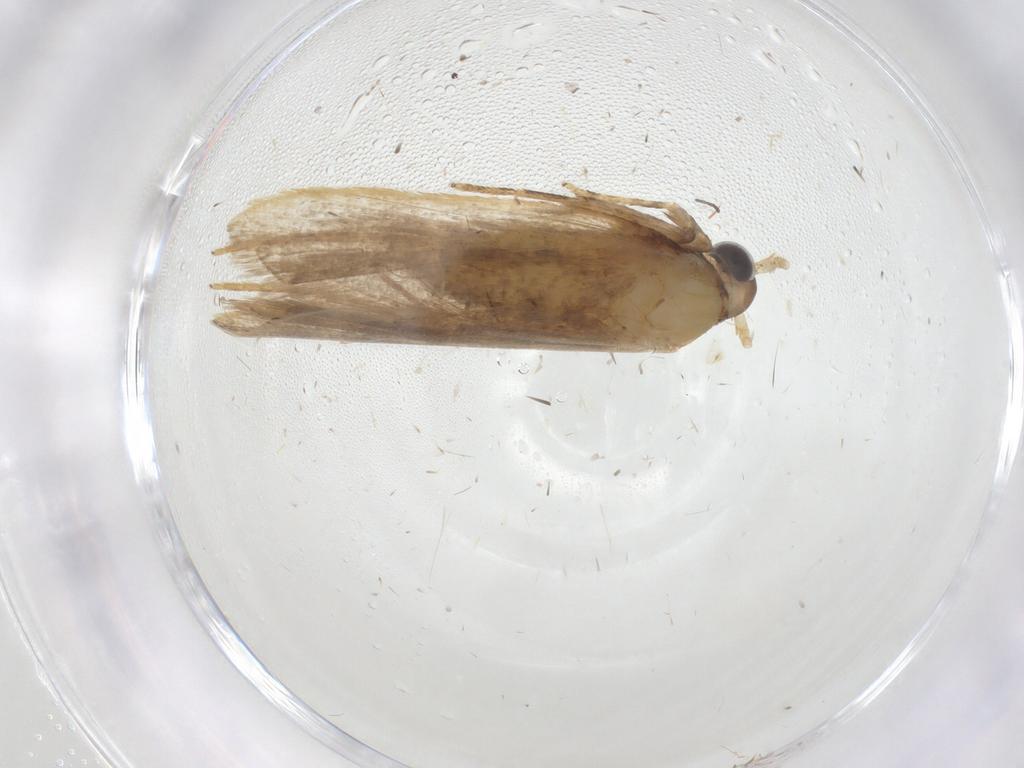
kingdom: Animalia
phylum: Arthropoda
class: Insecta
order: Lepidoptera
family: Lecithoceridae
